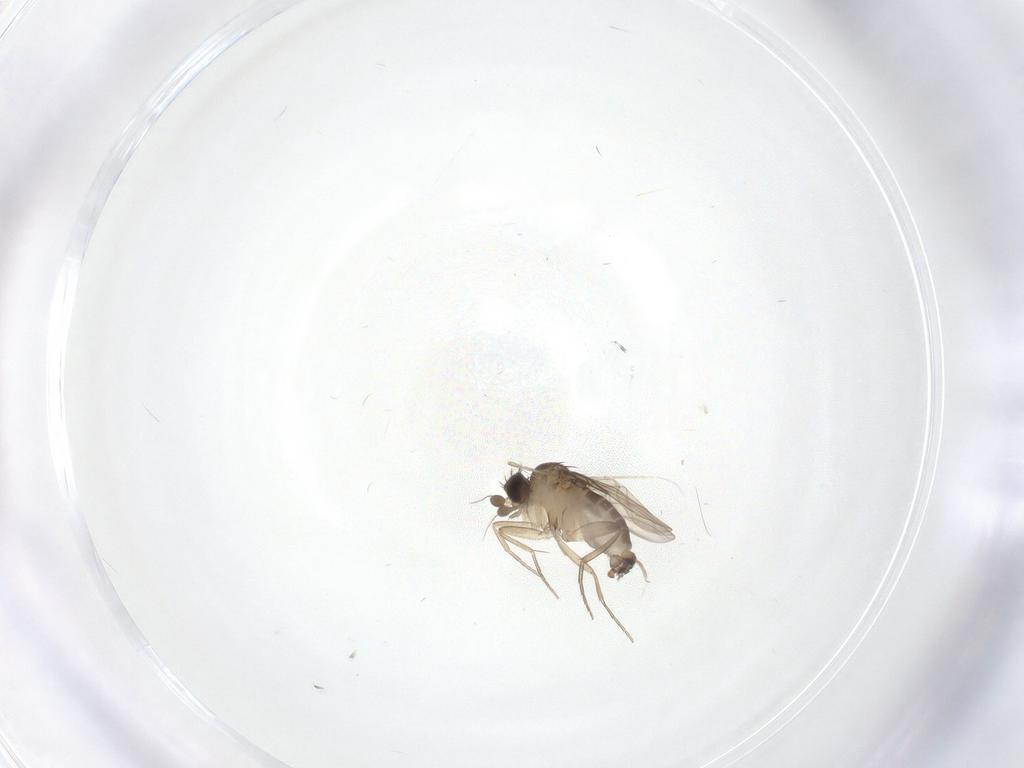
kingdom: Animalia
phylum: Arthropoda
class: Insecta
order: Diptera
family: Phoridae
